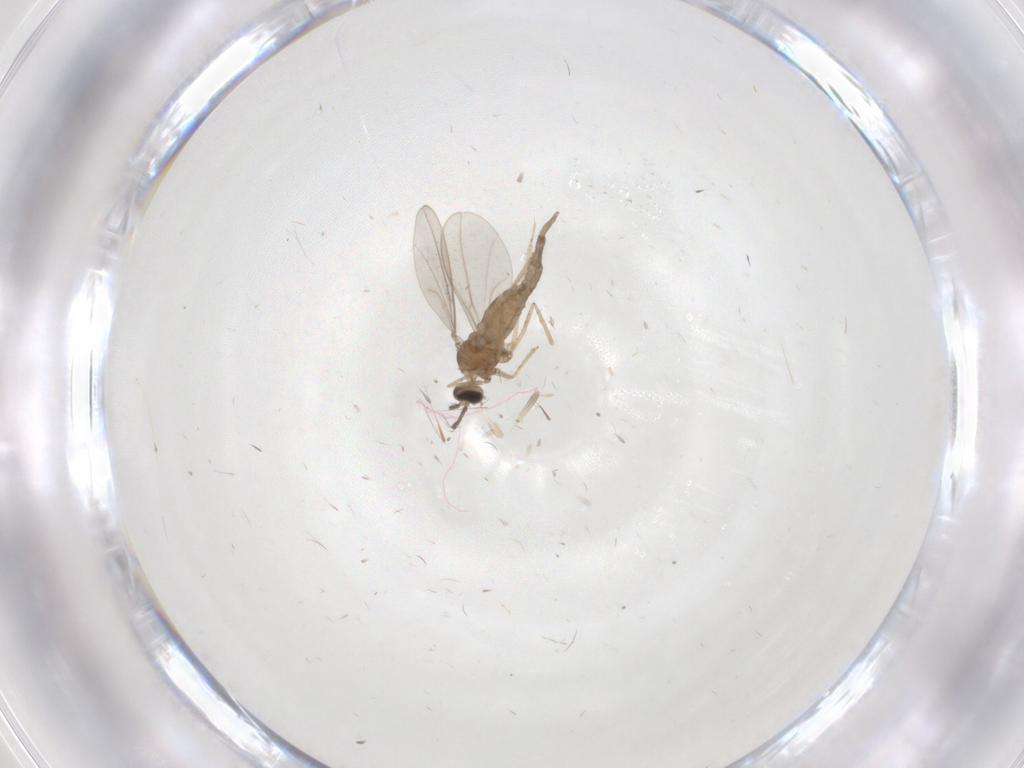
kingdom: Animalia
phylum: Arthropoda
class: Insecta
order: Diptera
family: Cecidomyiidae
